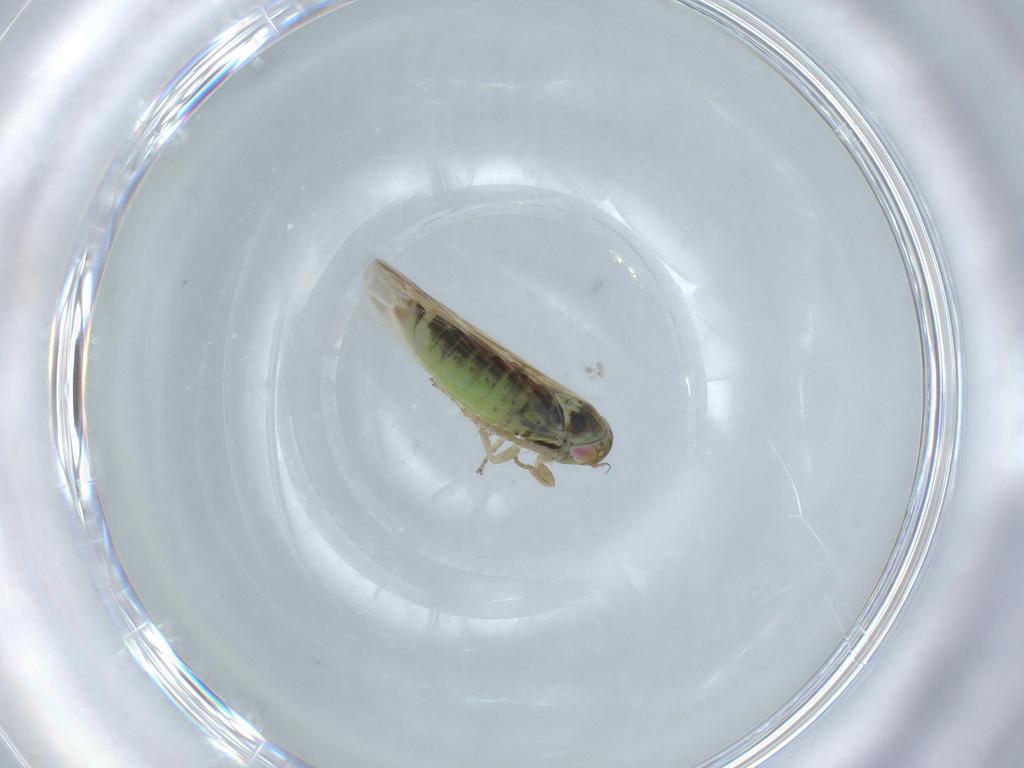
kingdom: Animalia
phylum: Arthropoda
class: Insecta
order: Hemiptera
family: Cicadellidae
